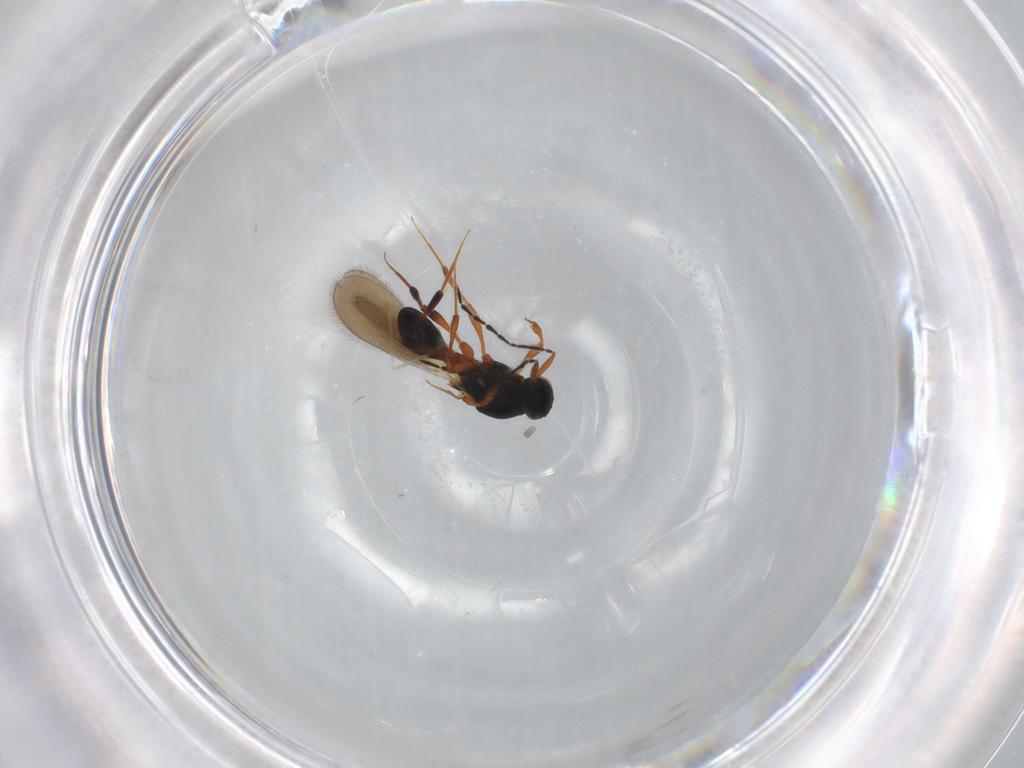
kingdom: Animalia
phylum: Arthropoda
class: Insecta
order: Hymenoptera
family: Platygastridae
